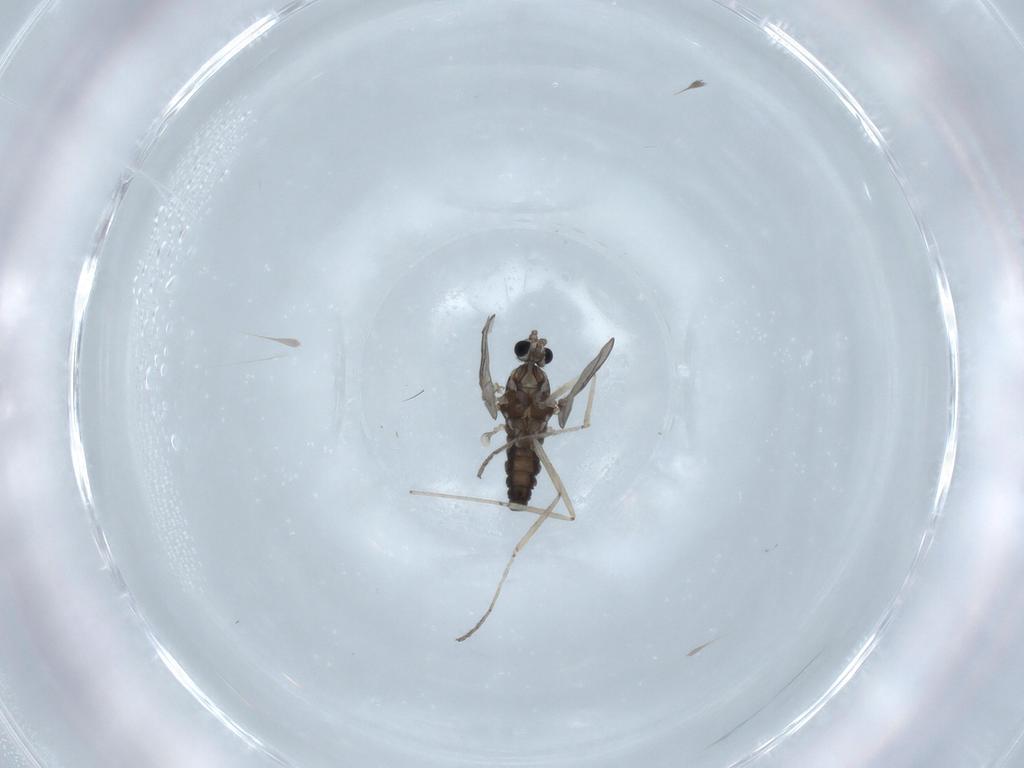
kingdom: Animalia
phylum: Arthropoda
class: Insecta
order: Diptera
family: Cecidomyiidae
